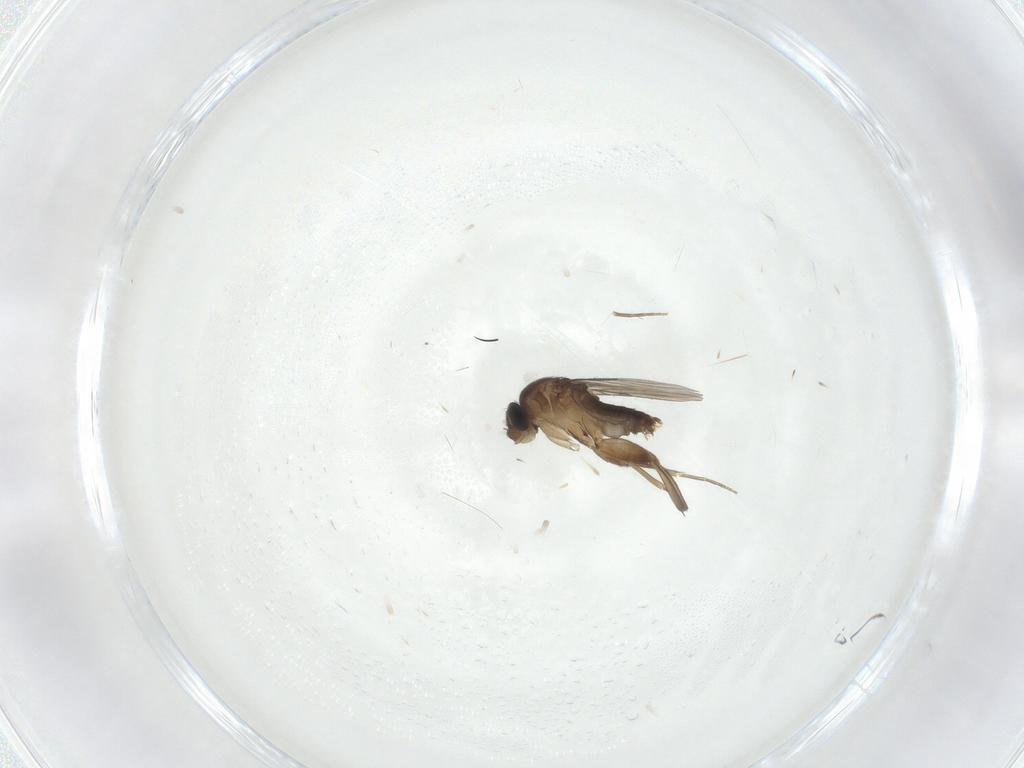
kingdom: Animalia
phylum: Arthropoda
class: Insecta
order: Diptera
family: Phoridae
